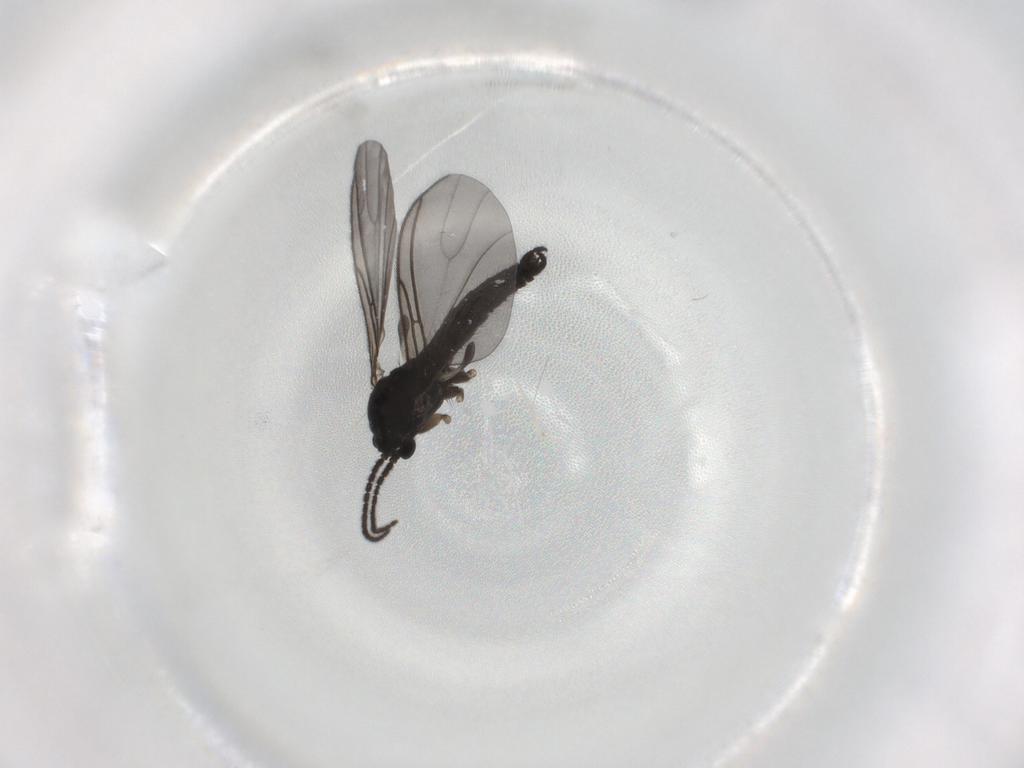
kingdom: Animalia
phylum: Arthropoda
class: Insecta
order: Diptera
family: Sciaridae
